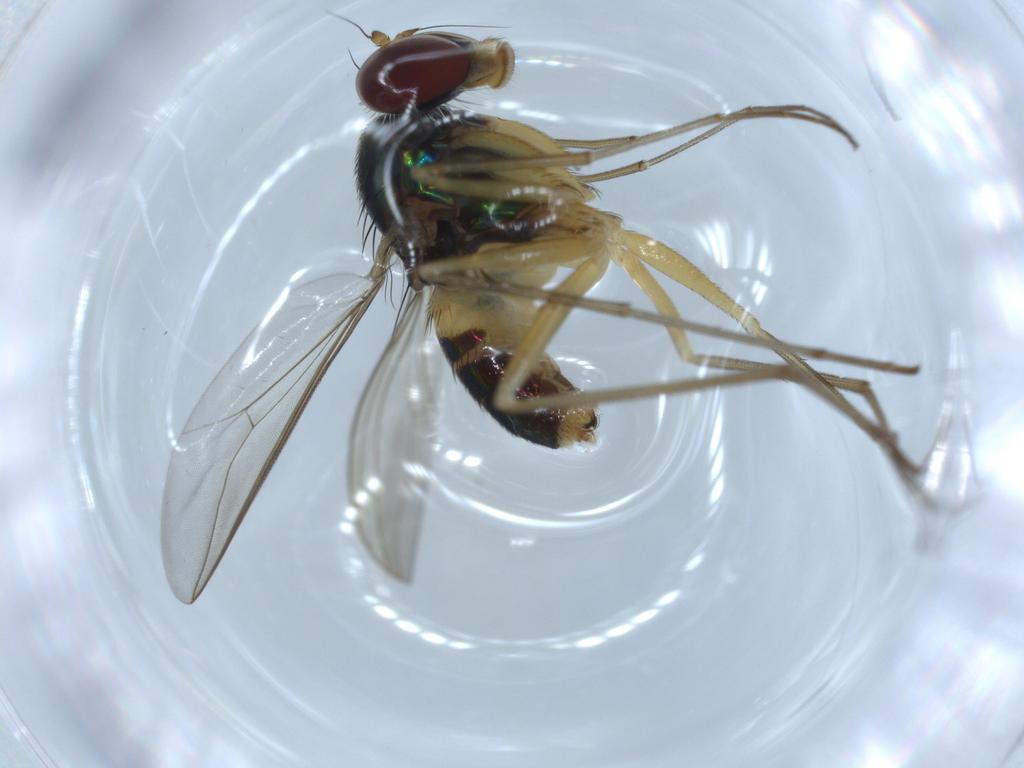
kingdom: Animalia
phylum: Arthropoda
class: Insecta
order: Diptera
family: Dolichopodidae
